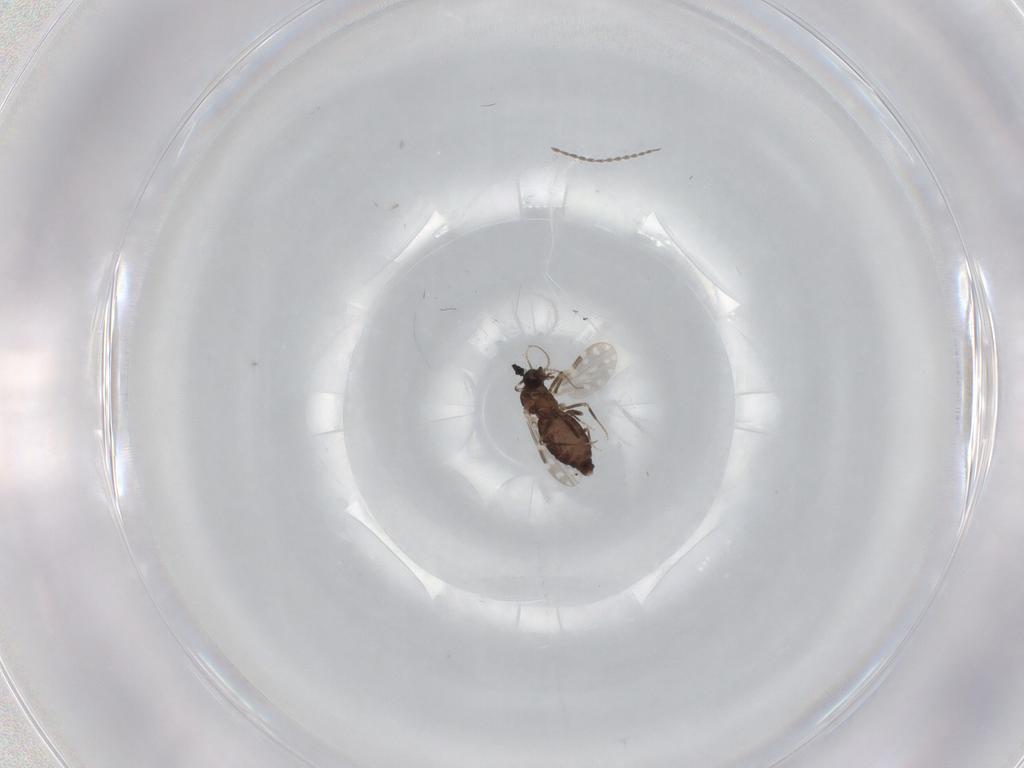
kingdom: Animalia
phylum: Arthropoda
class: Insecta
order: Diptera
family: Cecidomyiidae
